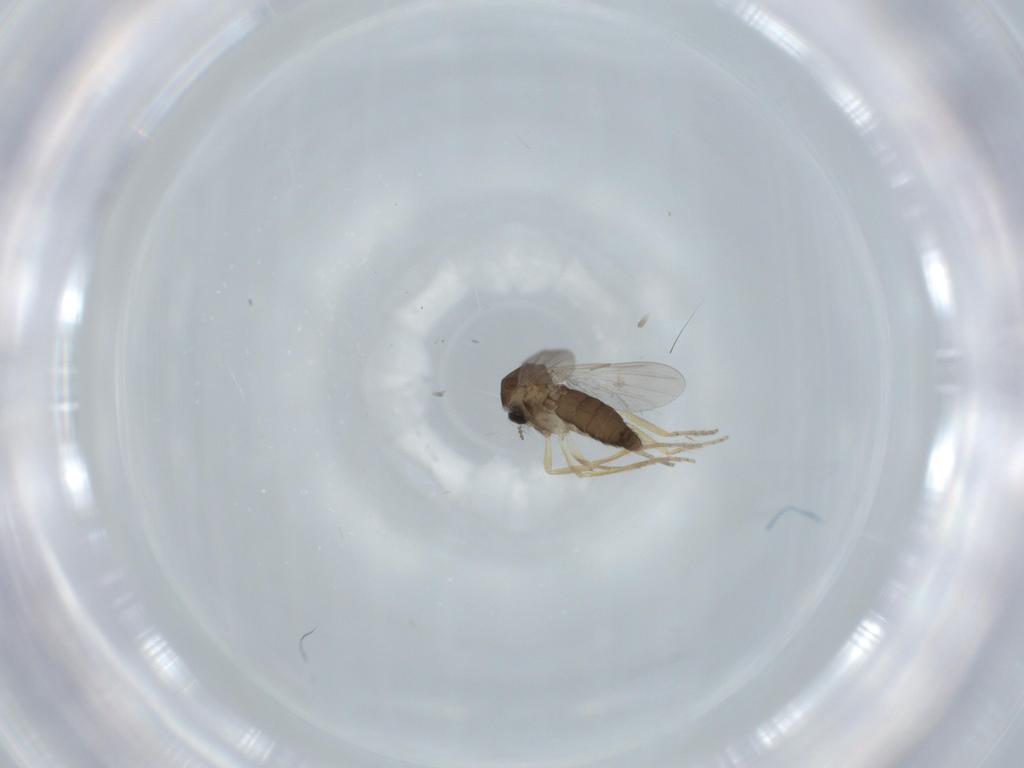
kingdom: Animalia
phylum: Arthropoda
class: Insecta
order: Diptera
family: Ceratopogonidae
